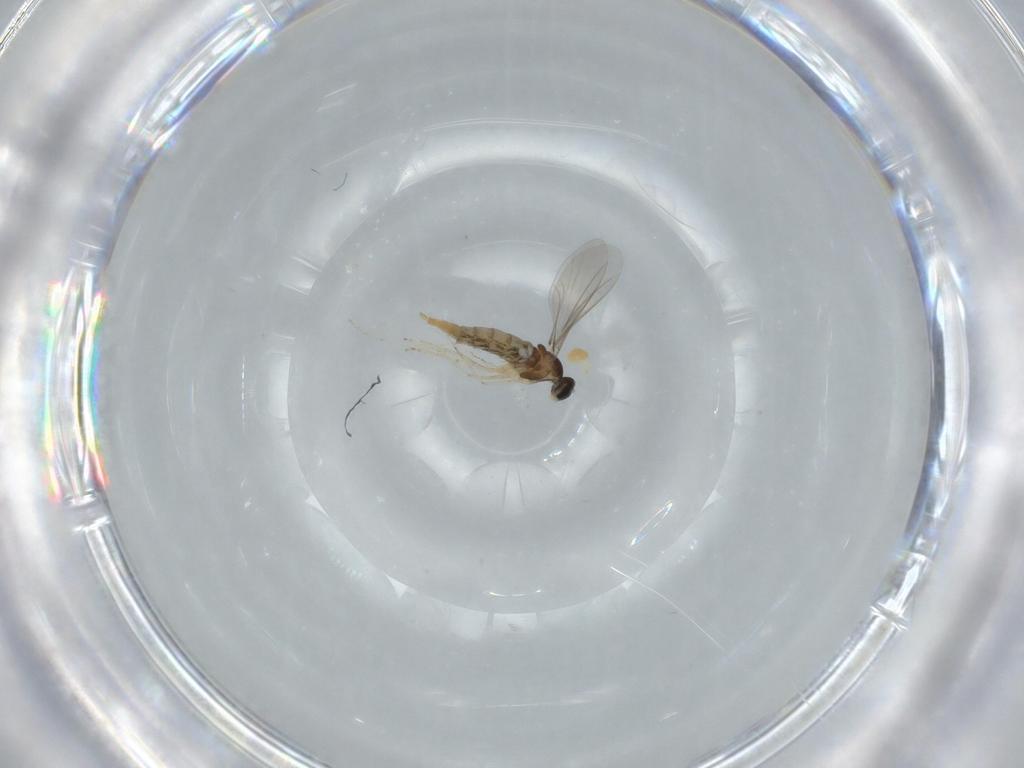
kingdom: Animalia
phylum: Arthropoda
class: Insecta
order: Diptera
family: Cecidomyiidae
